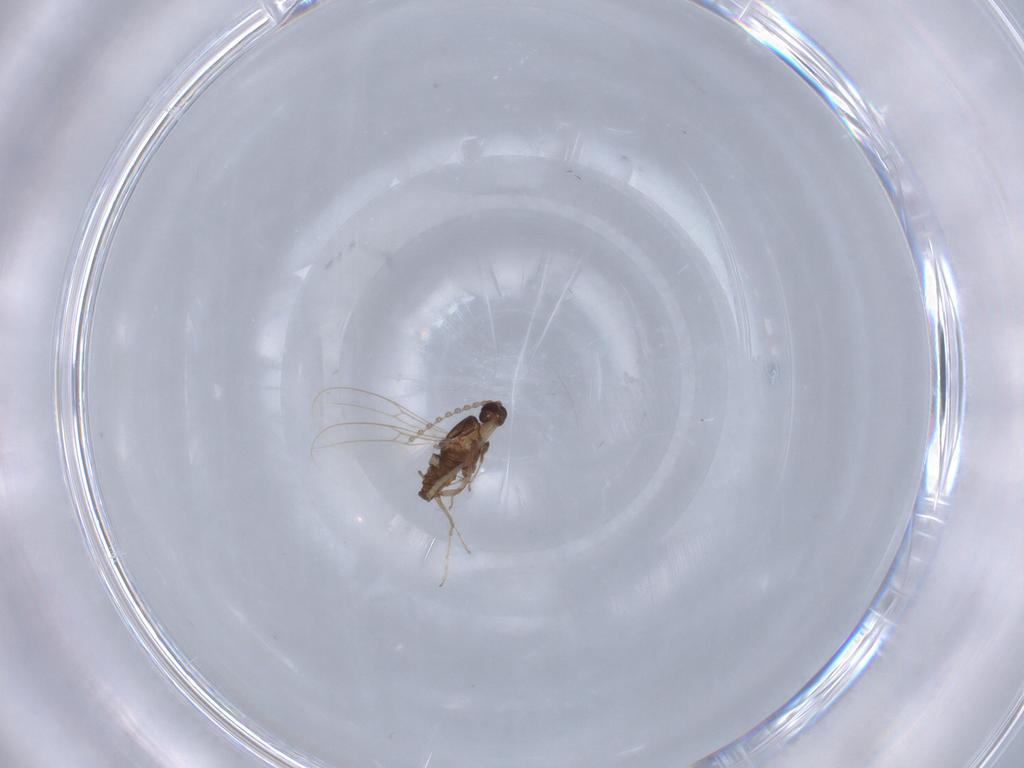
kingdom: Animalia
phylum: Arthropoda
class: Insecta
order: Diptera
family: Cecidomyiidae
